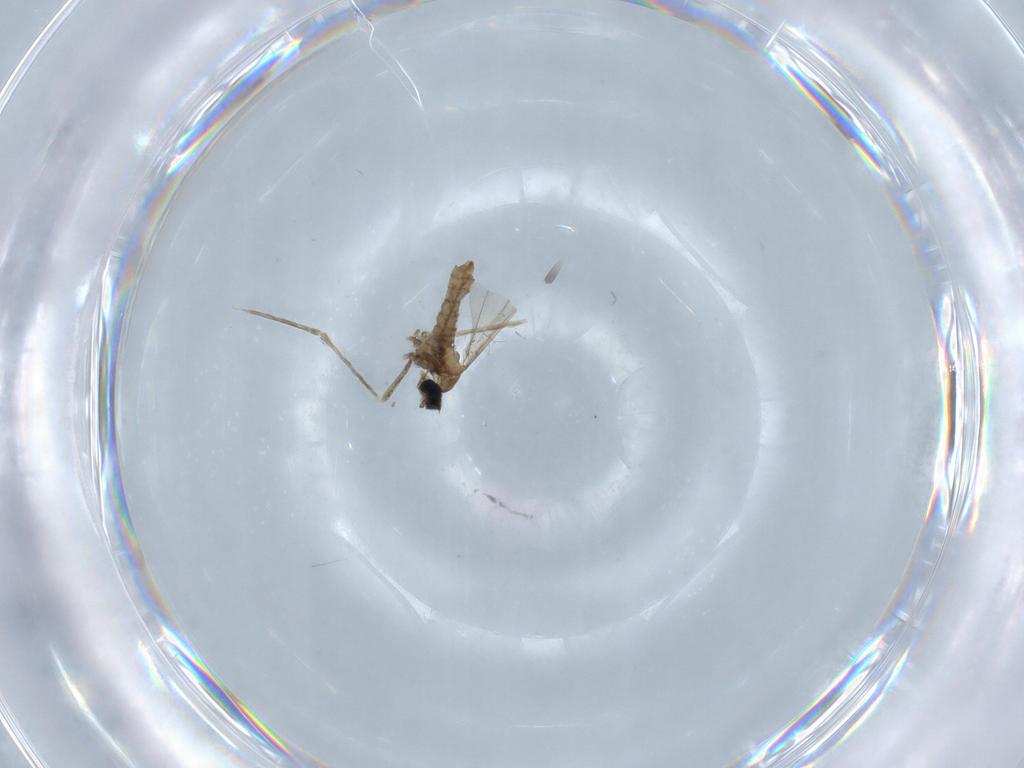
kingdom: Animalia
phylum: Arthropoda
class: Insecta
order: Diptera
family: Cecidomyiidae
